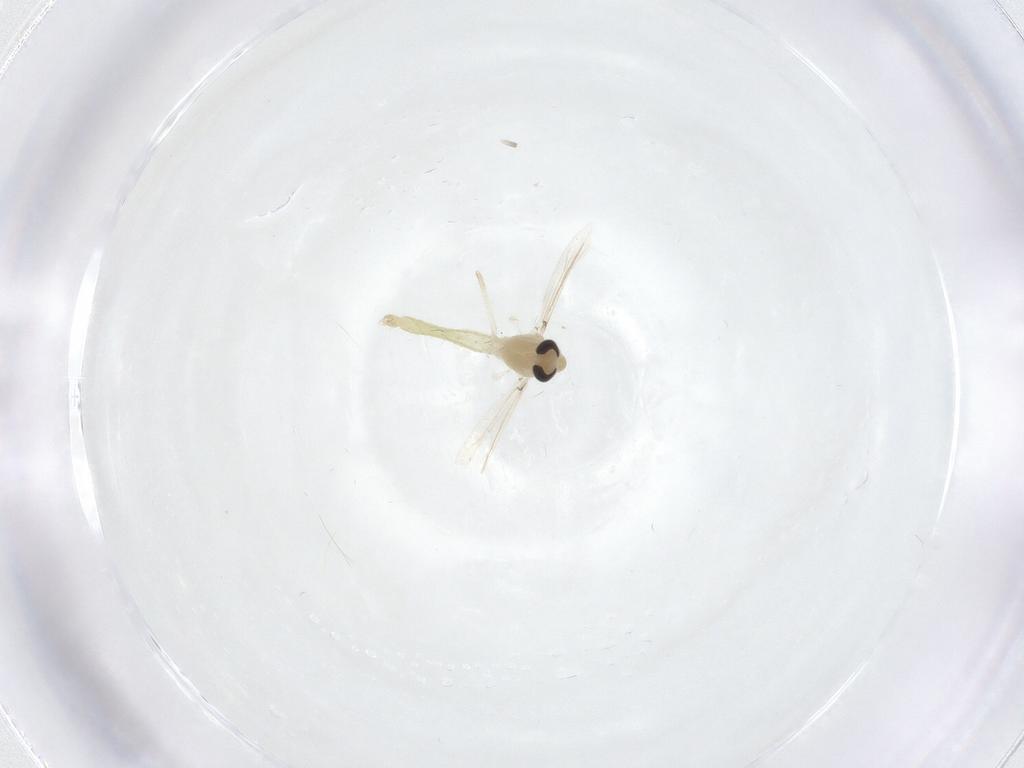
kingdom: Animalia
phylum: Arthropoda
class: Insecta
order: Diptera
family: Chironomidae
